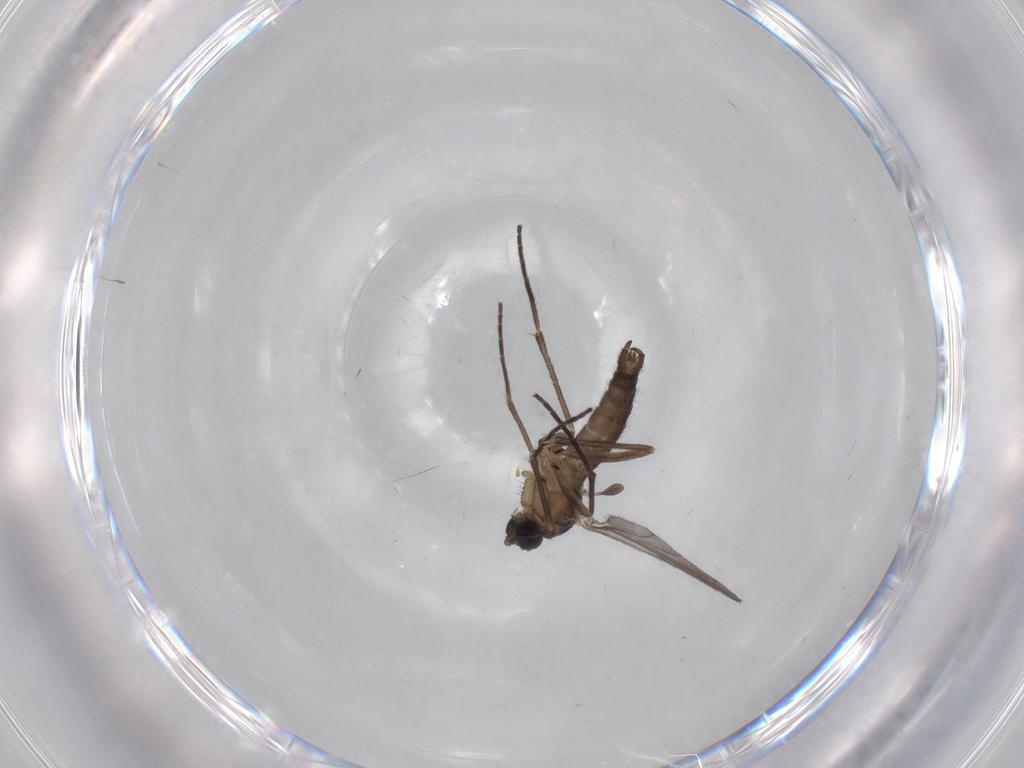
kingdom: Animalia
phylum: Arthropoda
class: Insecta
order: Diptera
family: Sciaridae
